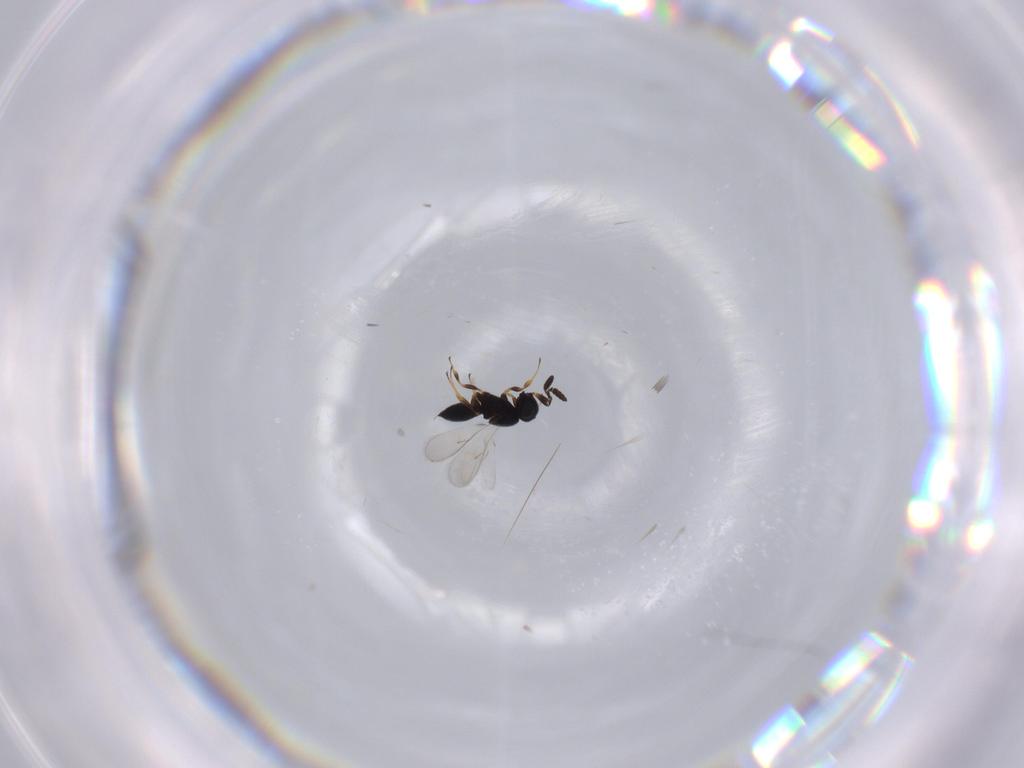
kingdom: Animalia
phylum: Arthropoda
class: Insecta
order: Hymenoptera
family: Scelionidae
